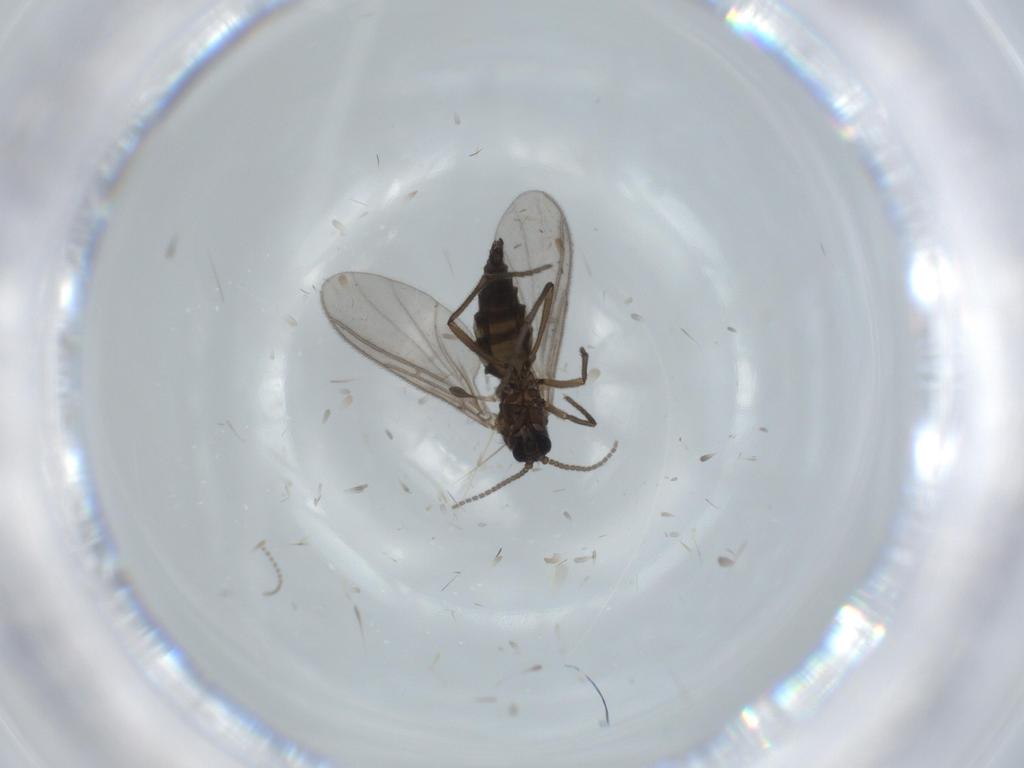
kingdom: Animalia
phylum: Arthropoda
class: Insecta
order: Diptera
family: Sciaridae
